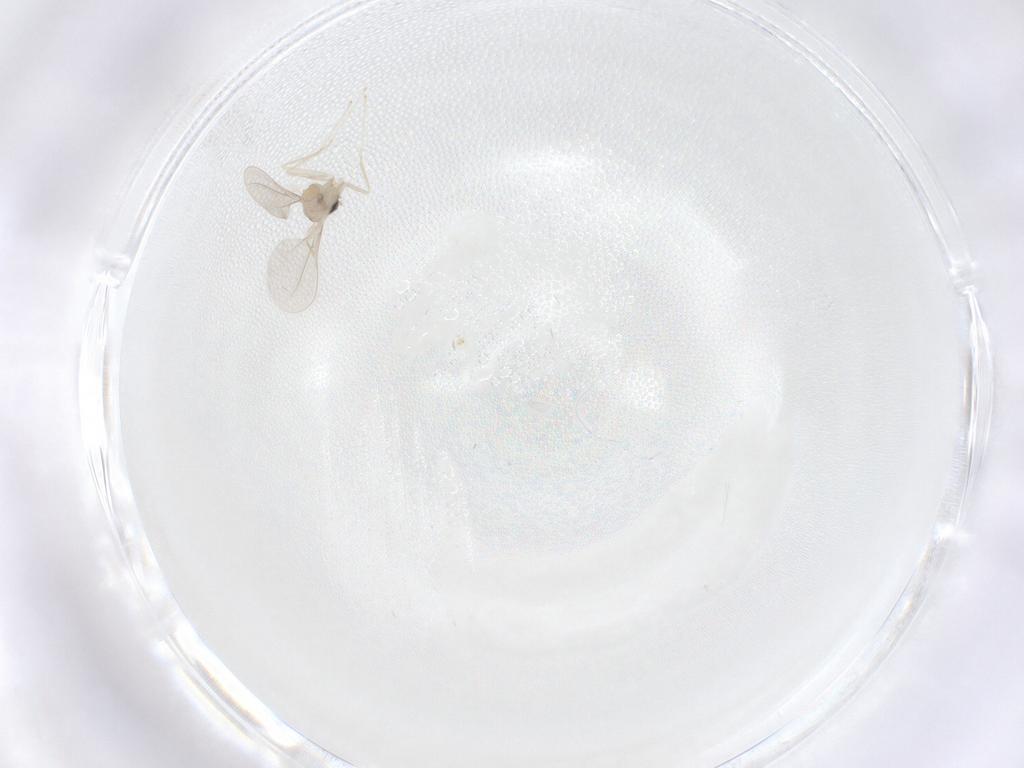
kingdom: Animalia
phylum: Arthropoda
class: Insecta
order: Diptera
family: Cecidomyiidae
